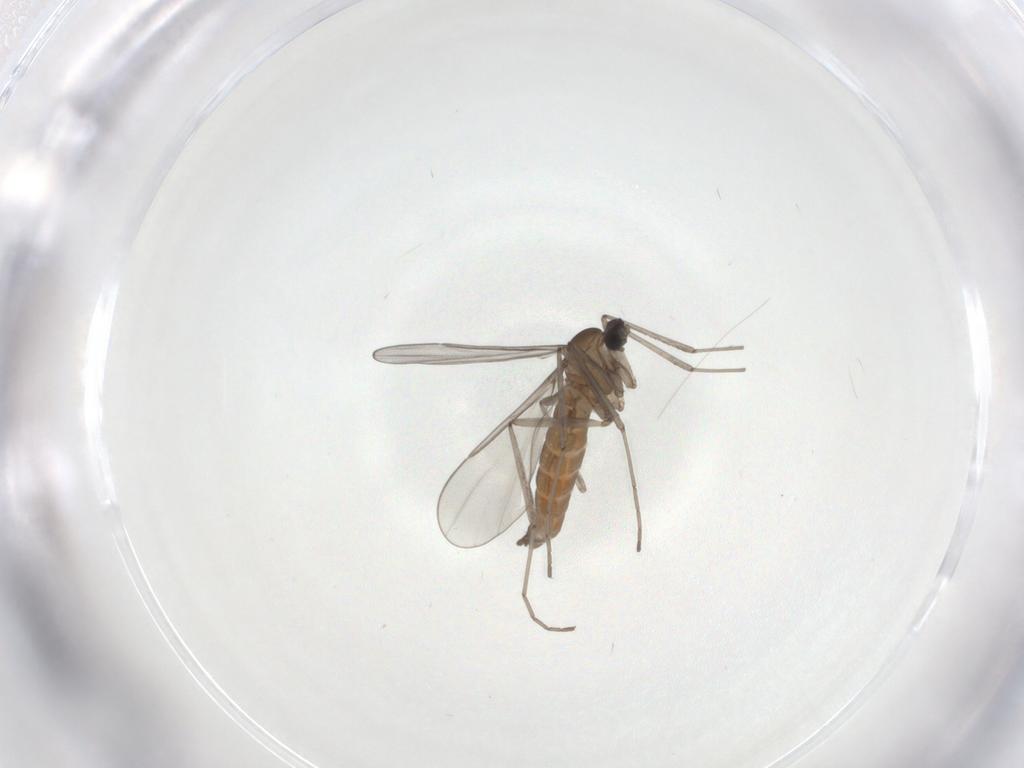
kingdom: Animalia
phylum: Arthropoda
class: Insecta
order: Diptera
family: Cecidomyiidae
